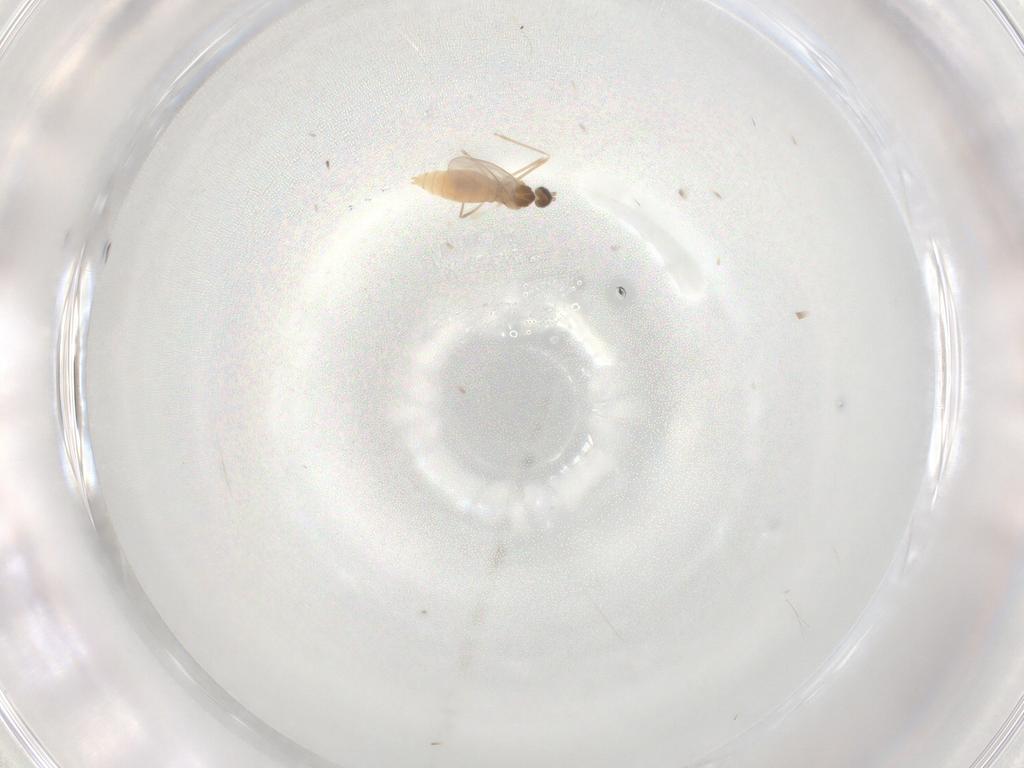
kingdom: Animalia
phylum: Arthropoda
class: Insecta
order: Diptera
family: Cecidomyiidae
